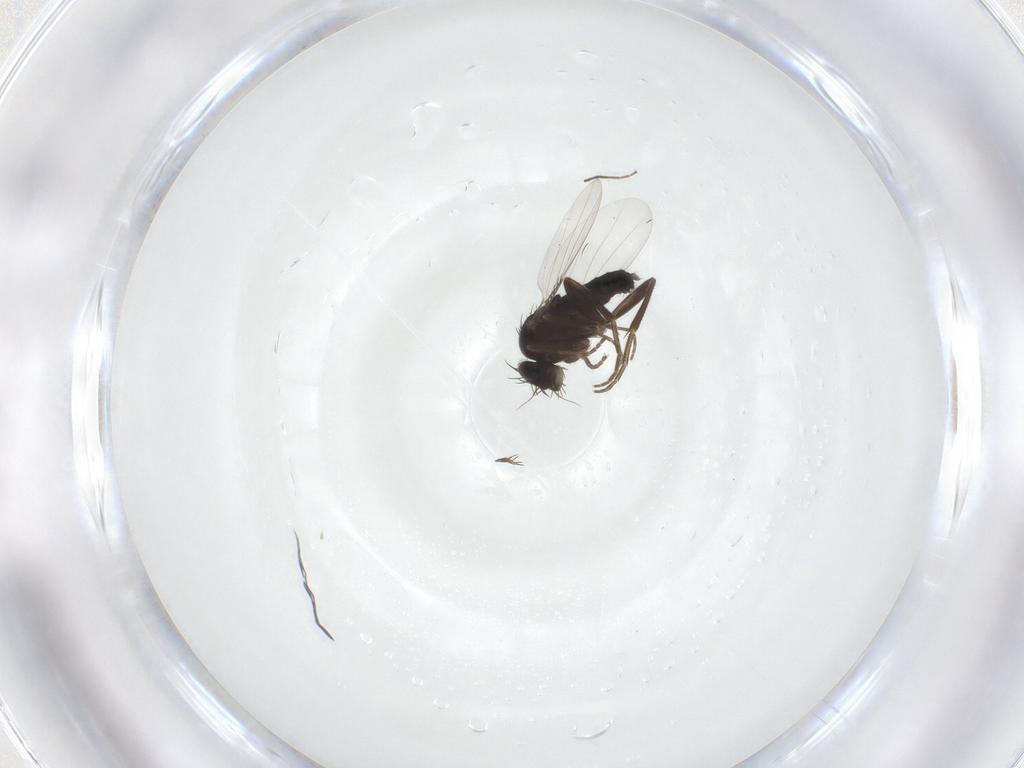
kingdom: Animalia
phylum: Arthropoda
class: Insecta
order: Diptera
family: Phoridae
